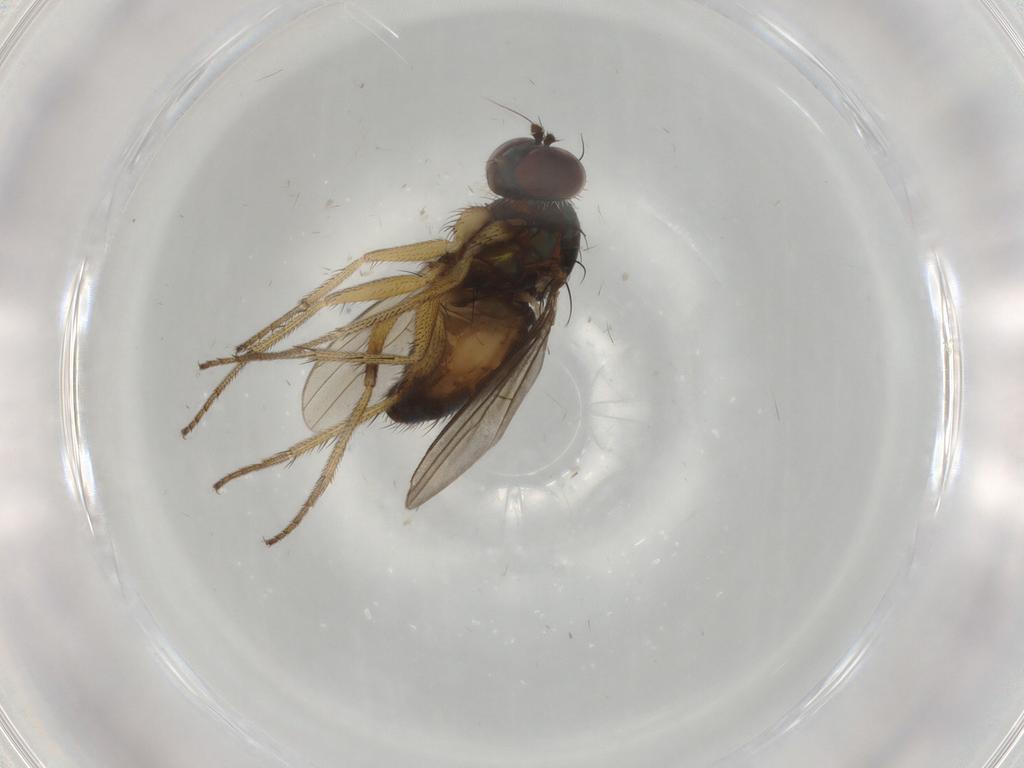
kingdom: Animalia
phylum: Arthropoda
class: Insecta
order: Diptera
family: Dolichopodidae
